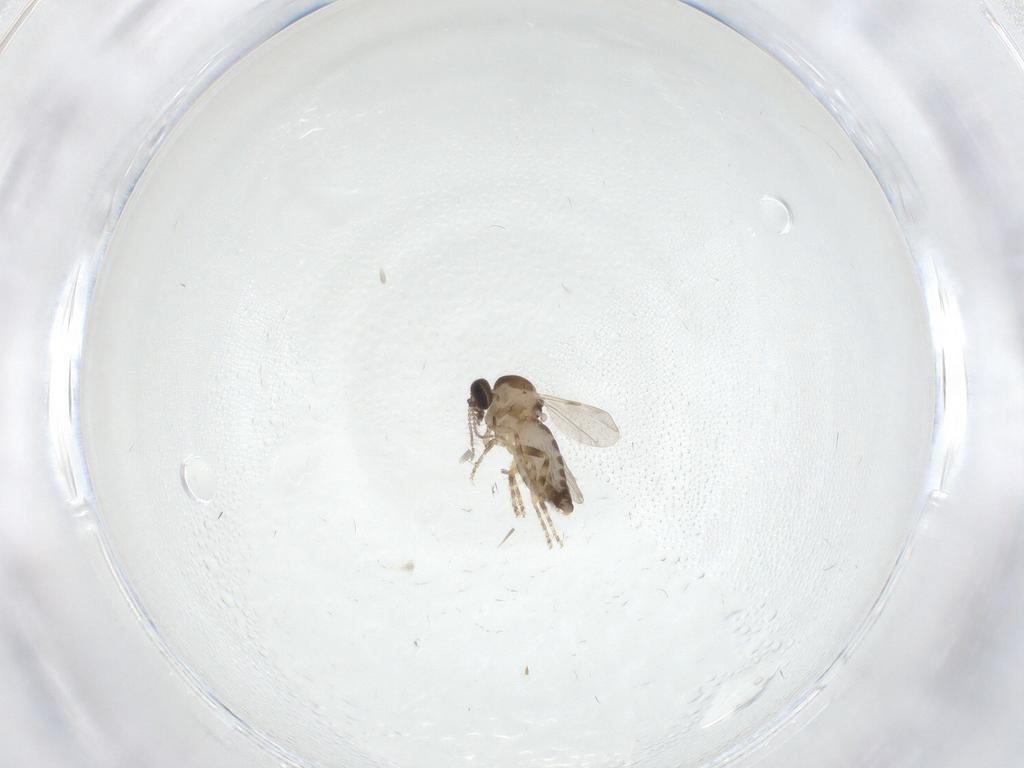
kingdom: Animalia
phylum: Arthropoda
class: Insecta
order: Diptera
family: Ceratopogonidae
